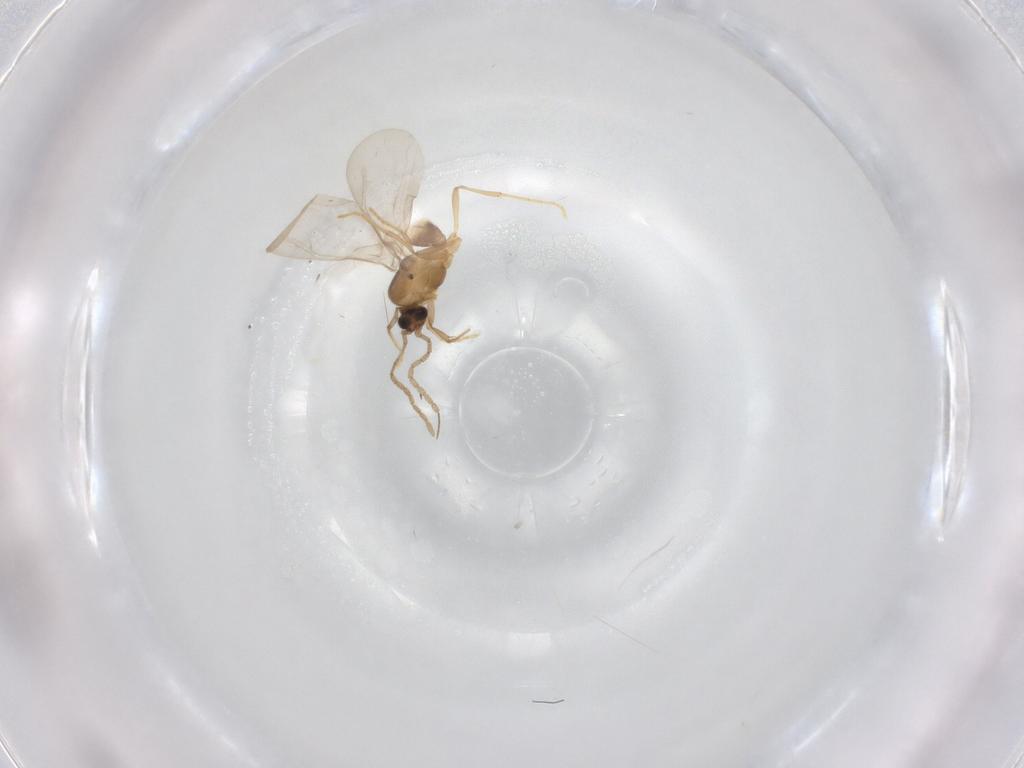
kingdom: Animalia
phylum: Arthropoda
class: Insecta
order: Diptera
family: Cecidomyiidae
